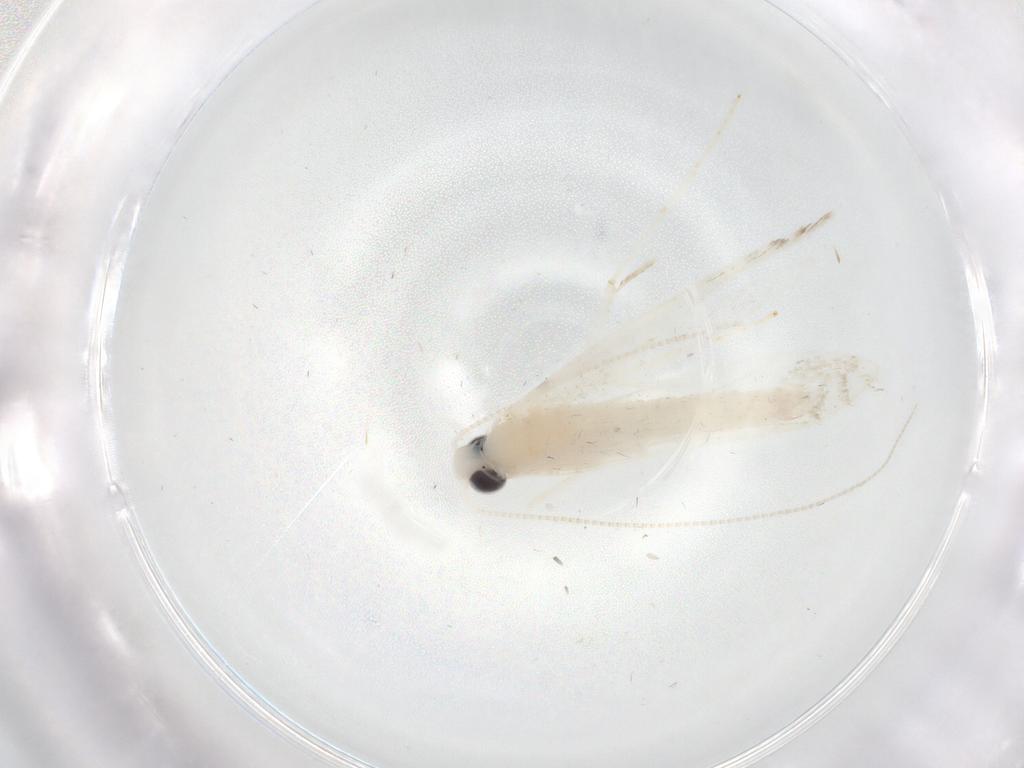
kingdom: Animalia
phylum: Arthropoda
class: Insecta
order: Lepidoptera
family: Gracillariidae
